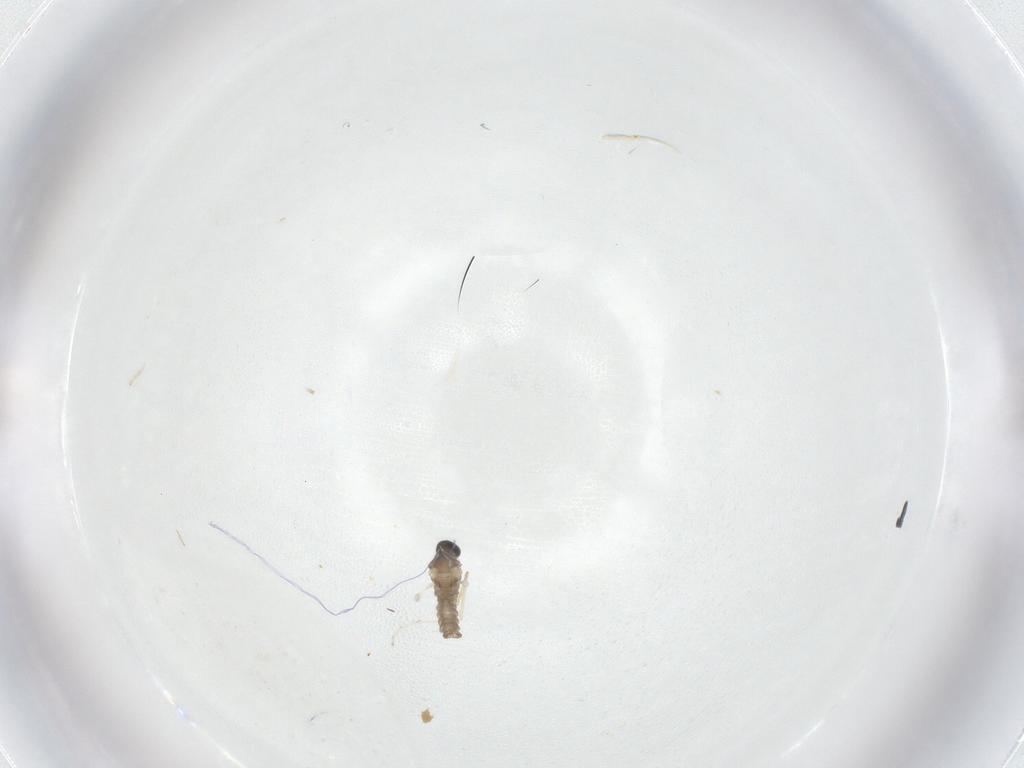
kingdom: Animalia
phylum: Arthropoda
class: Insecta
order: Diptera
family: Cecidomyiidae
